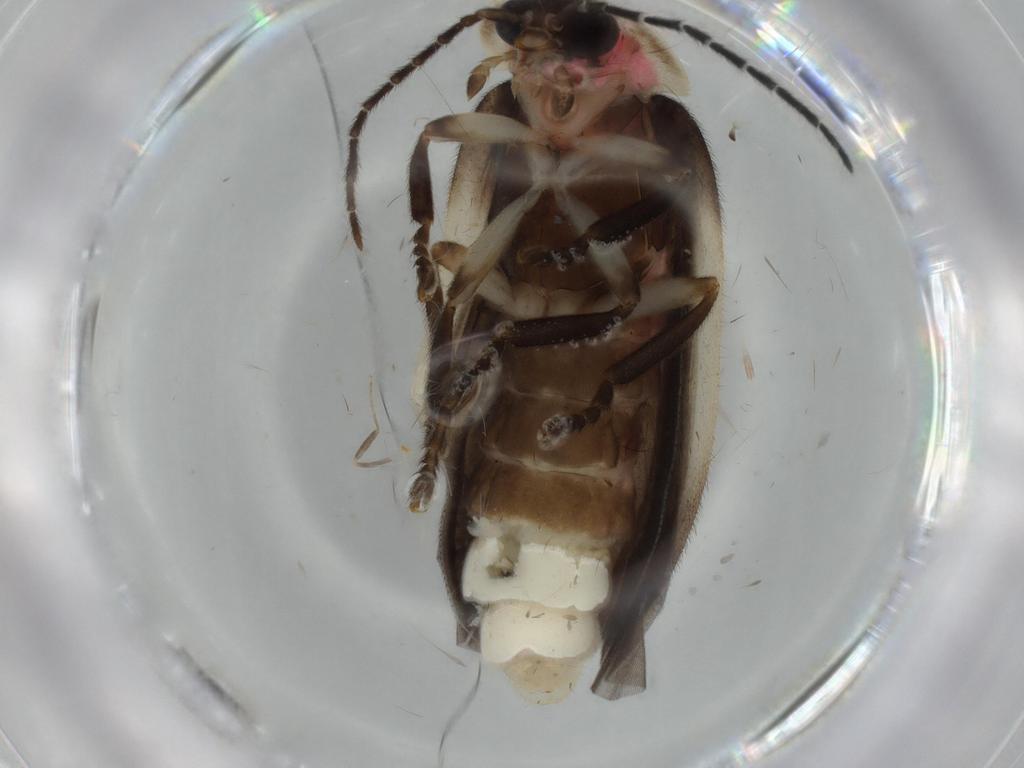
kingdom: Animalia
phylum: Arthropoda
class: Insecta
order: Coleoptera
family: Lampyridae
